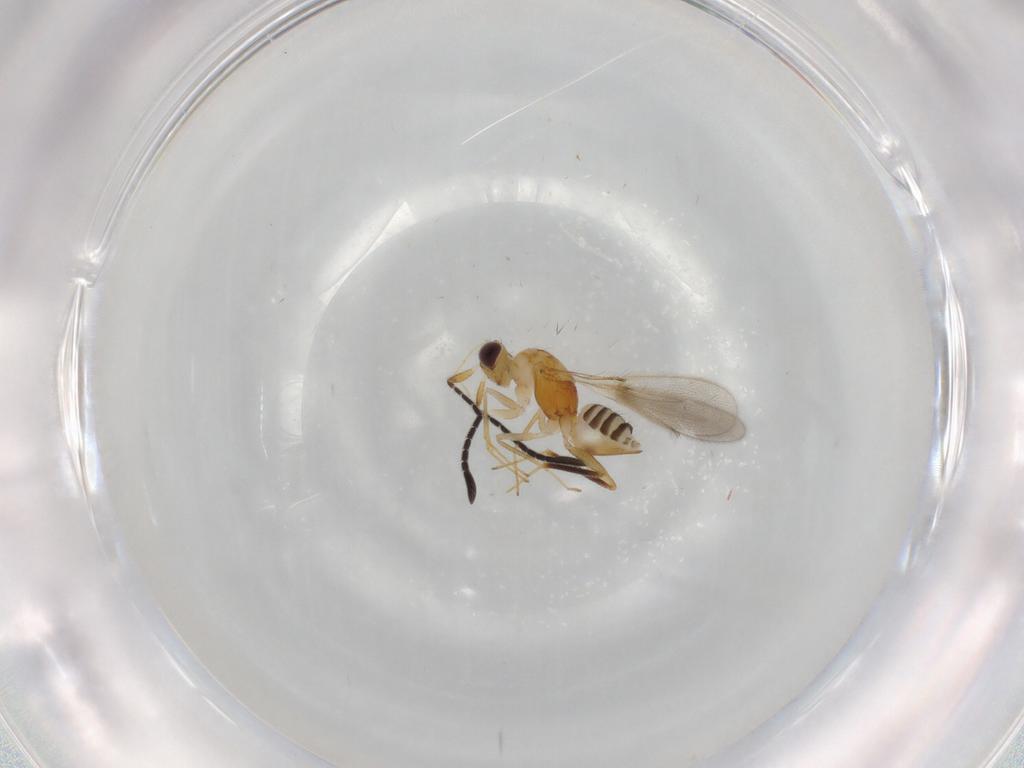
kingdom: Animalia
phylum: Arthropoda
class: Insecta
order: Hymenoptera
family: Mymaridae
